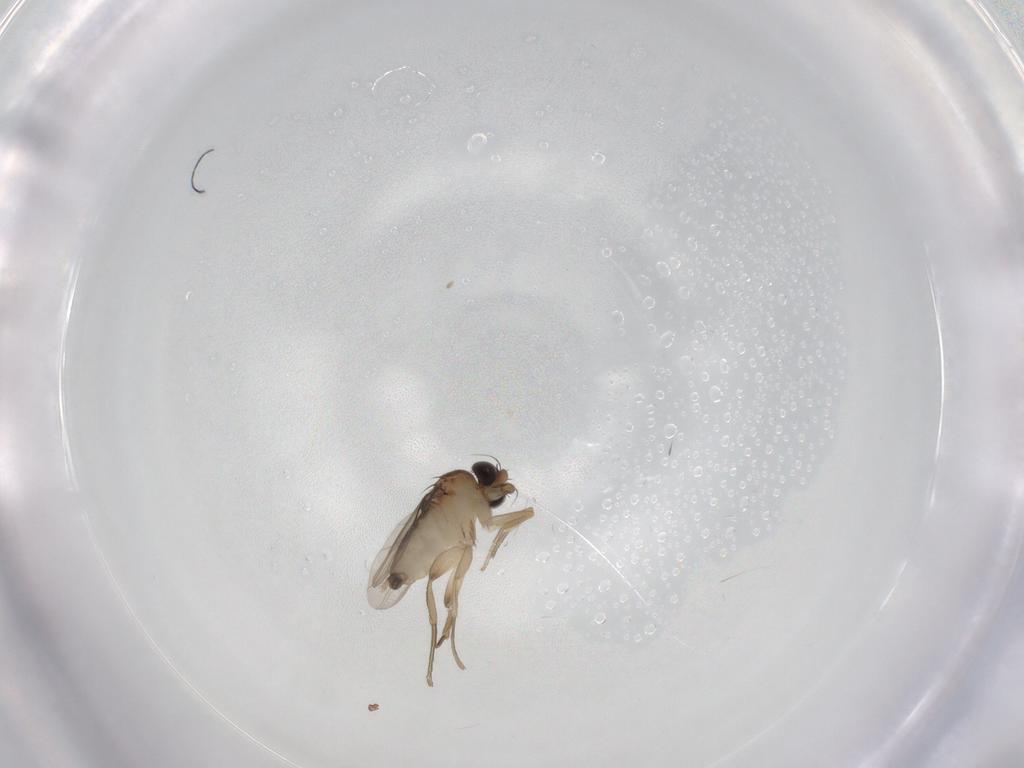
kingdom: Animalia
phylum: Arthropoda
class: Insecta
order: Diptera
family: Phoridae
